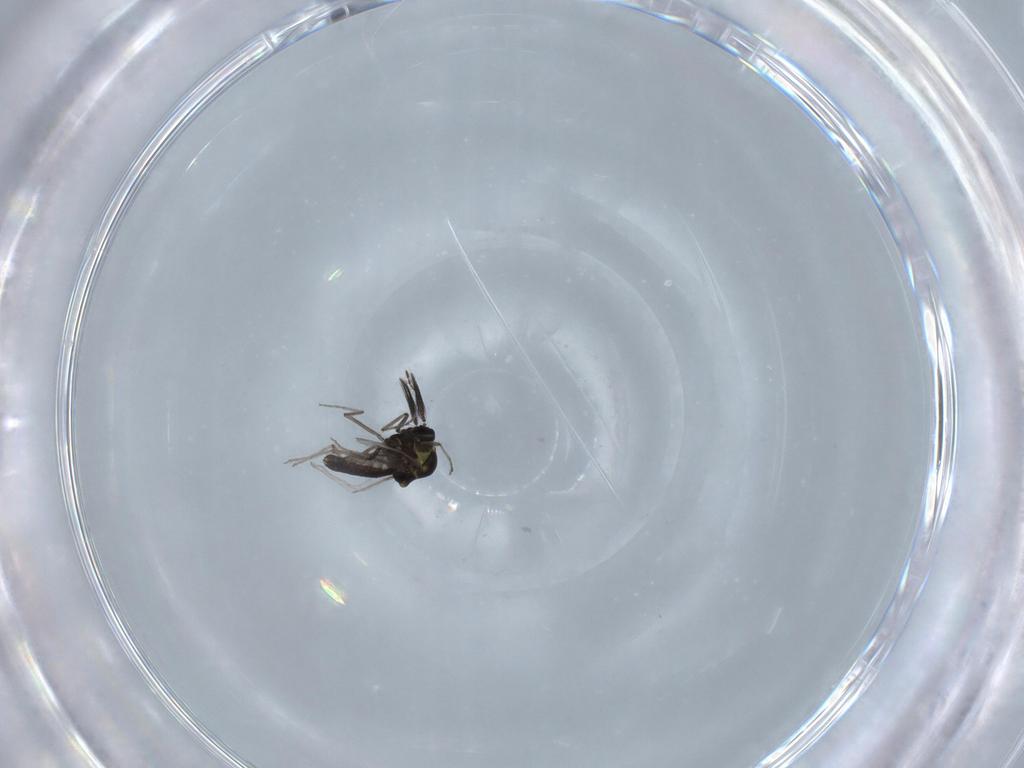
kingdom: Animalia
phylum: Arthropoda
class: Insecta
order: Diptera
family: Ceratopogonidae
